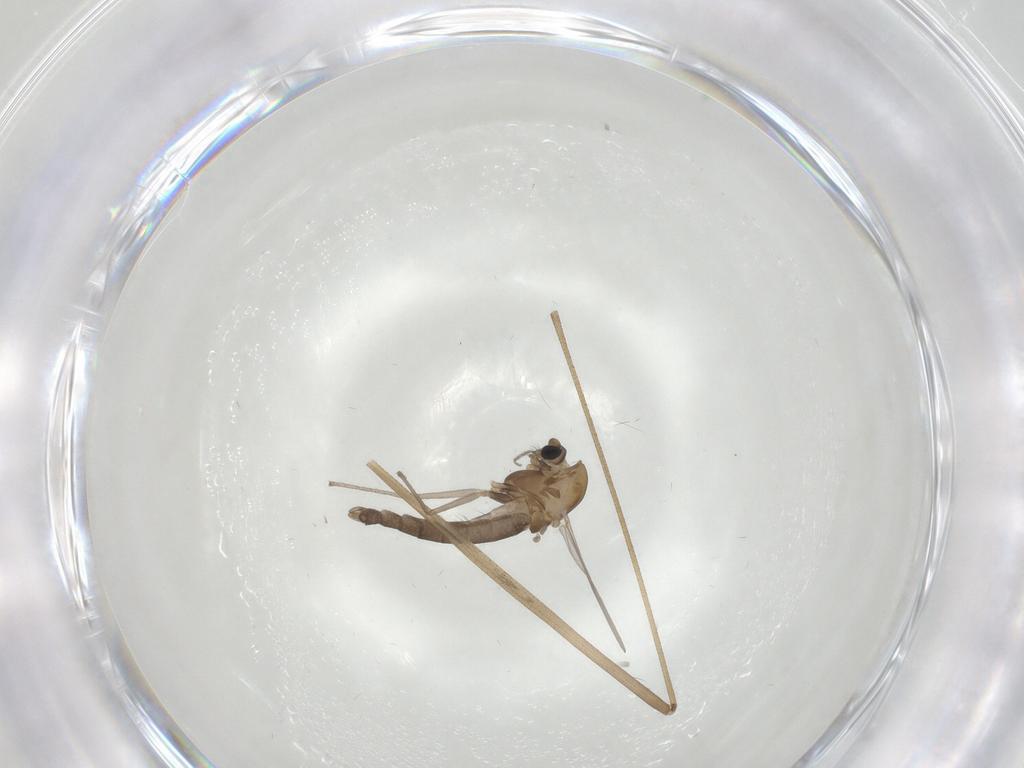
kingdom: Animalia
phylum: Arthropoda
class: Insecta
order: Diptera
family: Chironomidae
